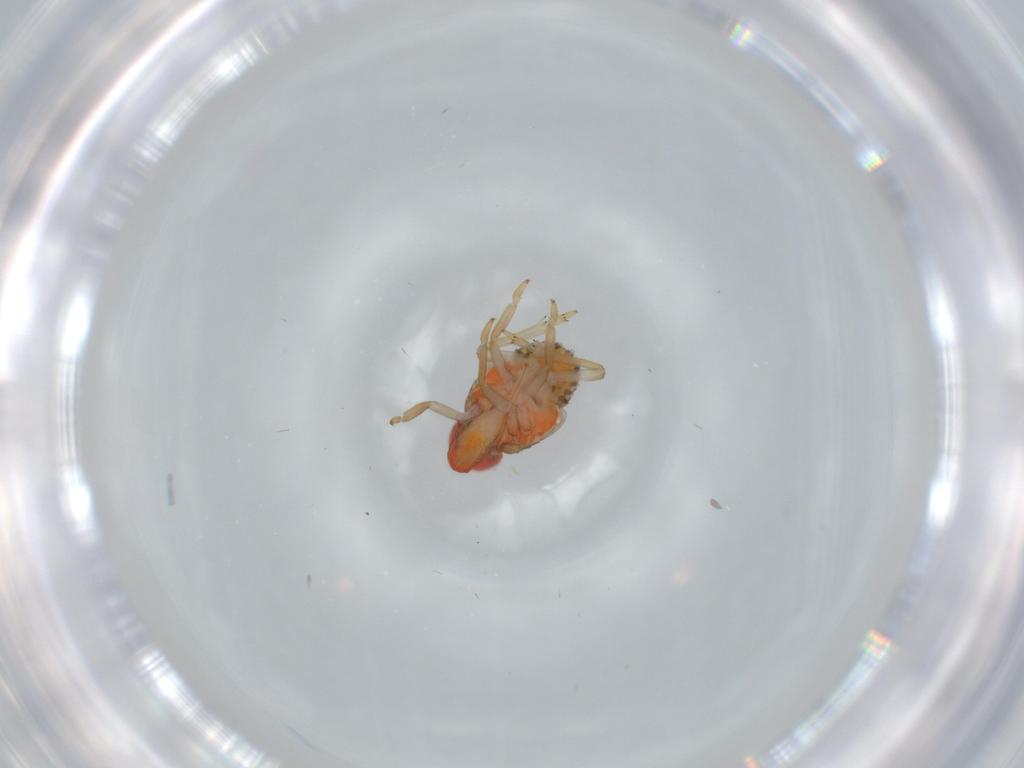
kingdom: Animalia
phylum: Arthropoda
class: Insecta
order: Hemiptera
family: Acanaloniidae
